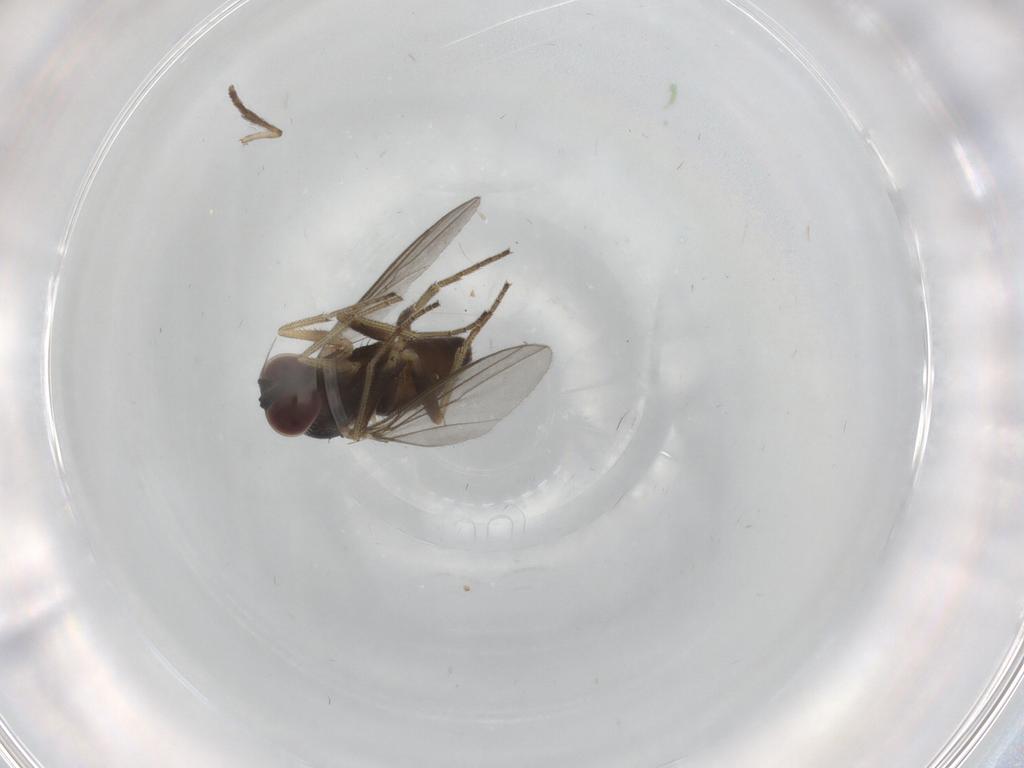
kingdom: Animalia
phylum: Arthropoda
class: Insecta
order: Diptera
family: Psychodidae
